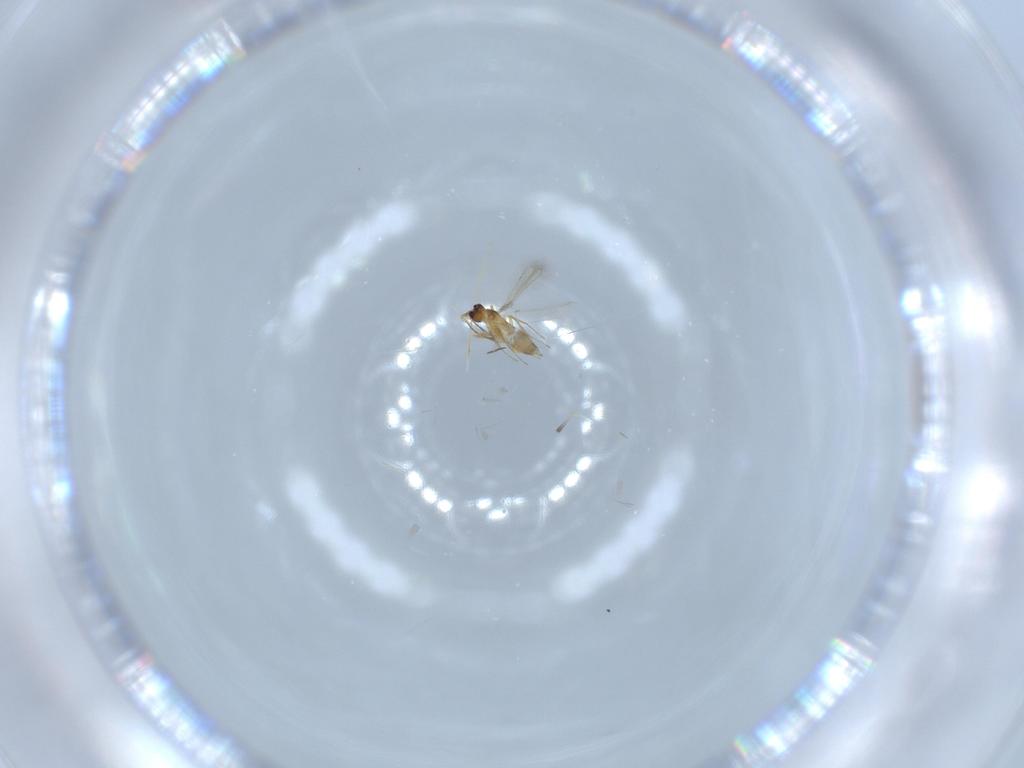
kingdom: Animalia
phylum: Arthropoda
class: Insecta
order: Hymenoptera
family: Mymaridae
